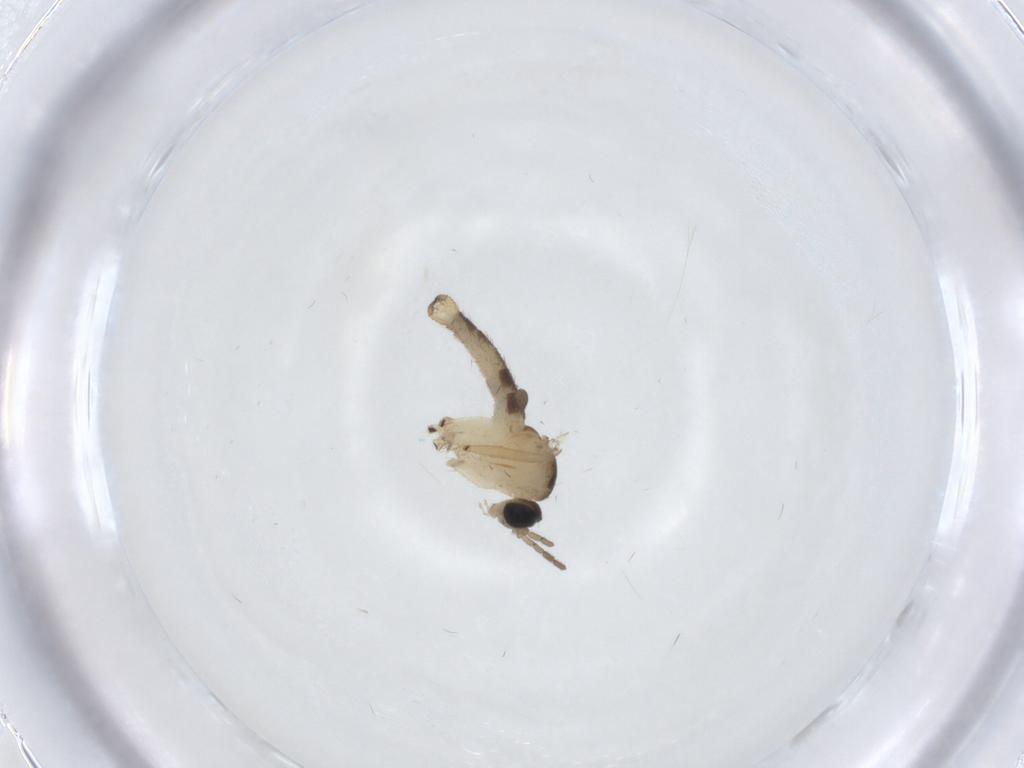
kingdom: Animalia
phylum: Arthropoda
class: Insecta
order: Diptera
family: Sciaridae
